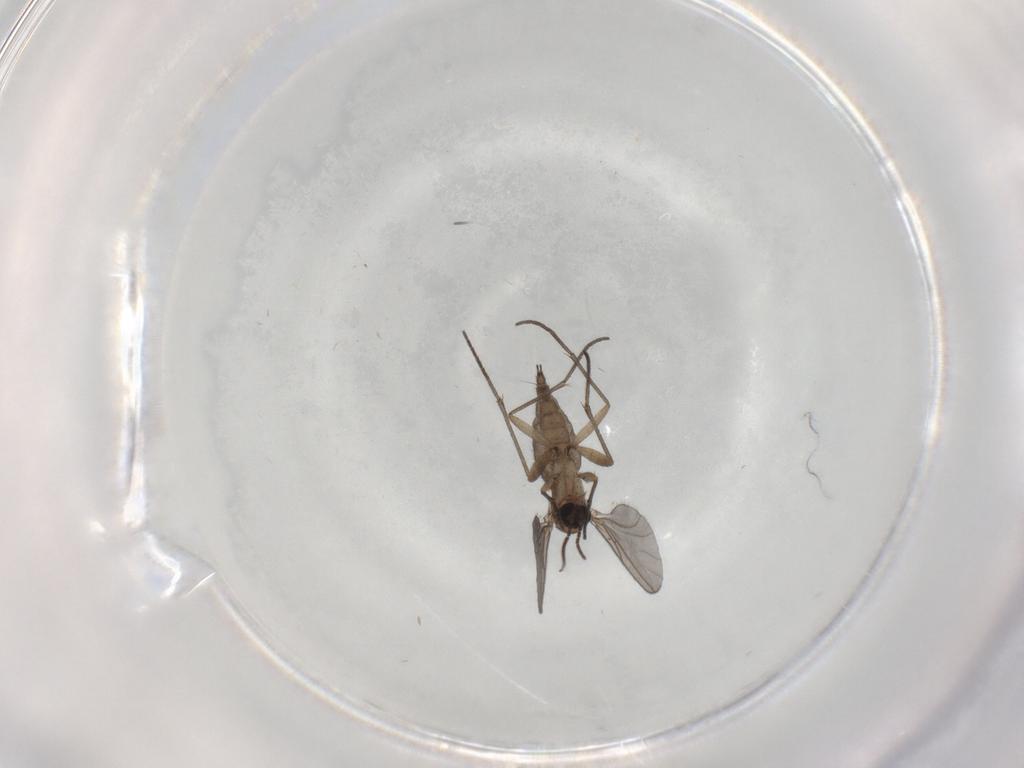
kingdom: Animalia
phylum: Arthropoda
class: Insecta
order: Diptera
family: Sciaridae
